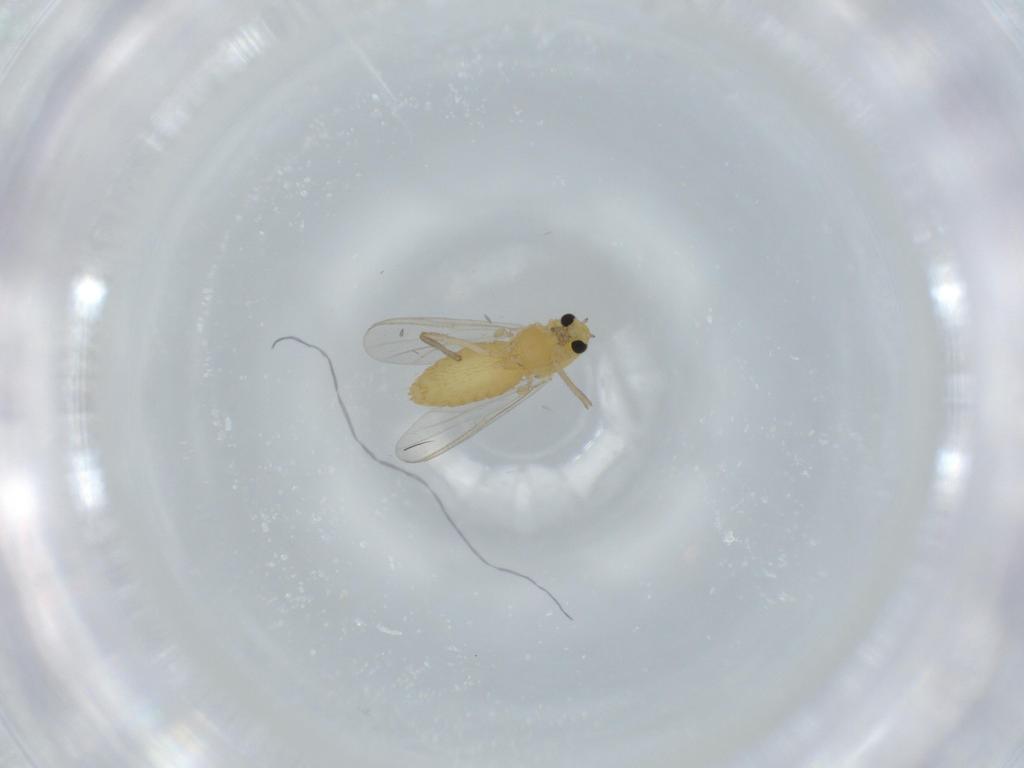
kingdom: Animalia
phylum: Arthropoda
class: Insecta
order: Diptera
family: Chironomidae
